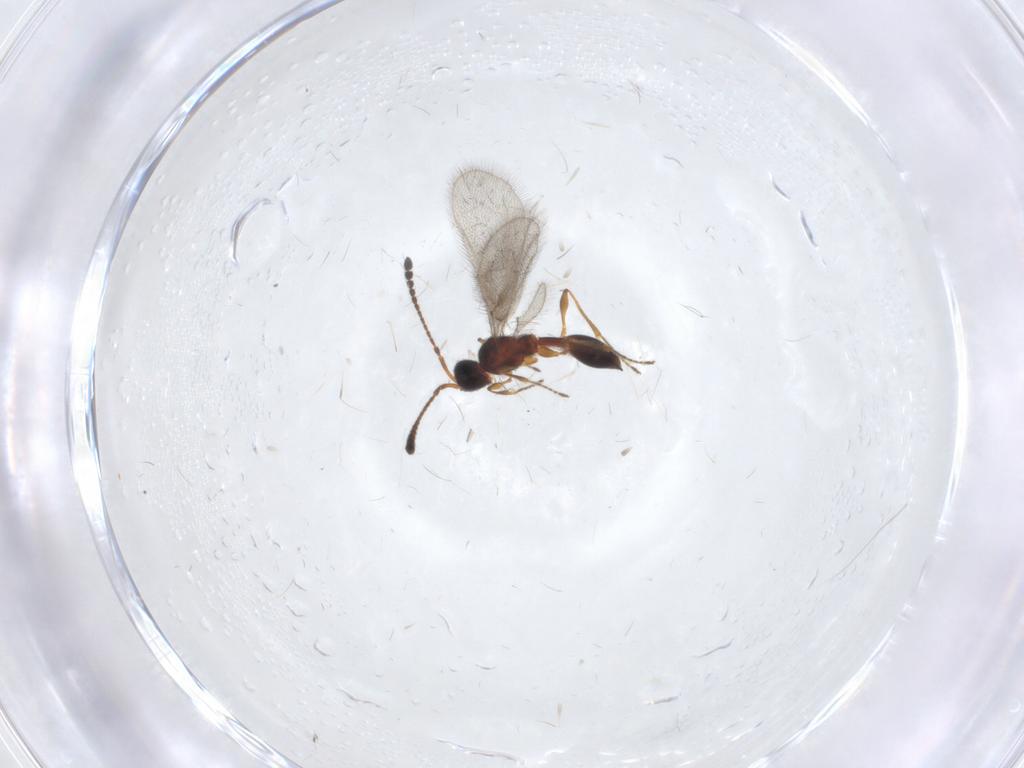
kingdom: Animalia
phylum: Arthropoda
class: Insecta
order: Hymenoptera
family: Diapriidae
